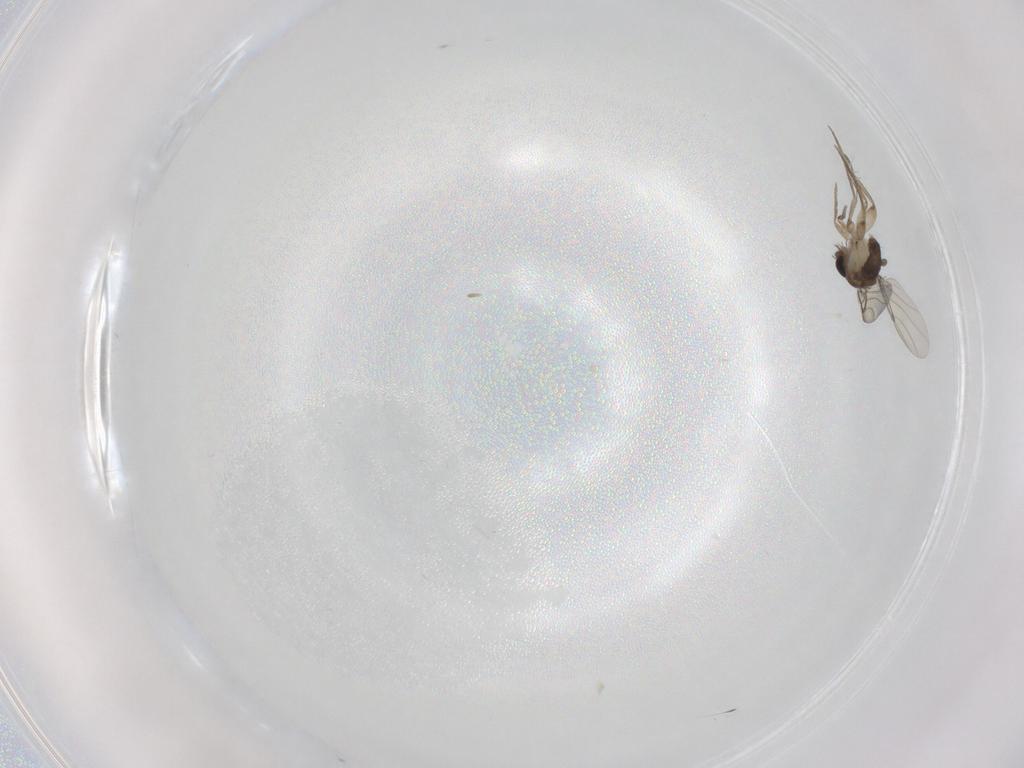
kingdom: Animalia
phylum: Arthropoda
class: Insecta
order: Diptera
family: Phoridae
